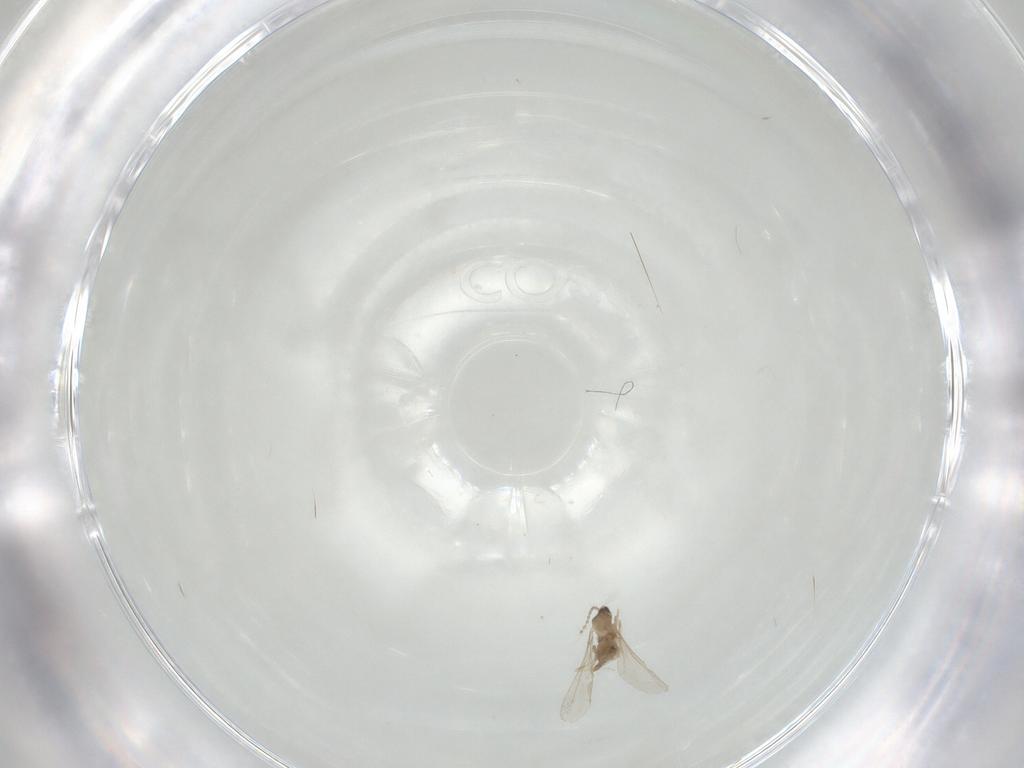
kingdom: Animalia
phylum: Arthropoda
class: Insecta
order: Diptera
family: Cecidomyiidae
